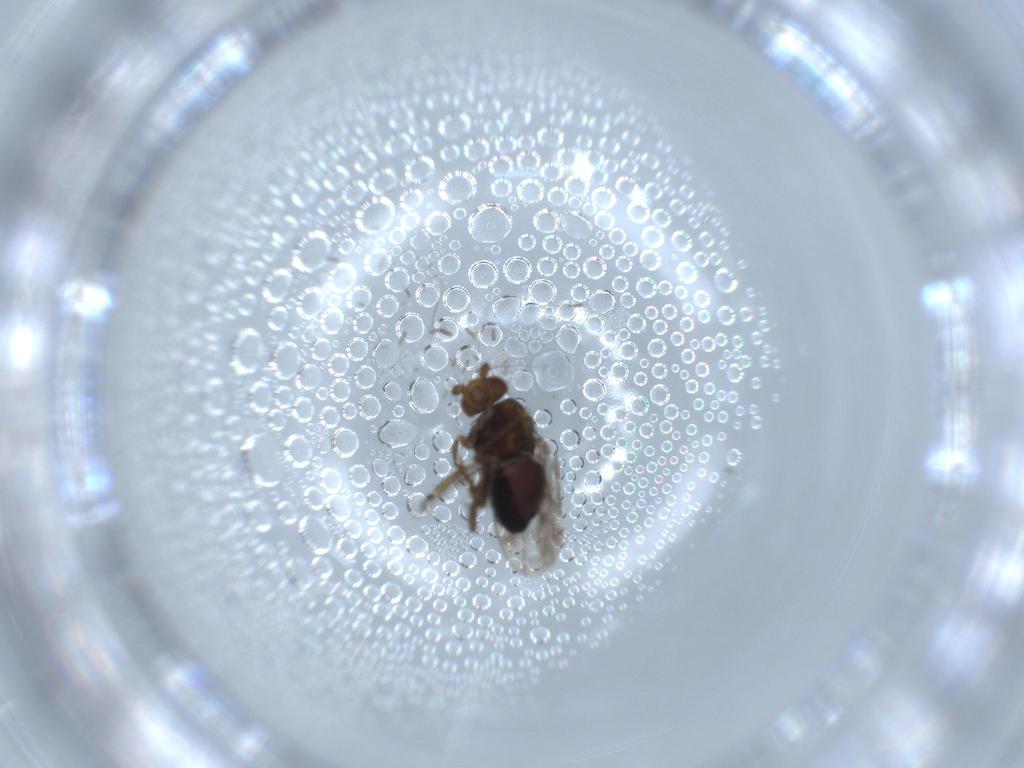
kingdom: Animalia
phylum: Arthropoda
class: Insecta
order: Diptera
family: Sphaeroceridae
